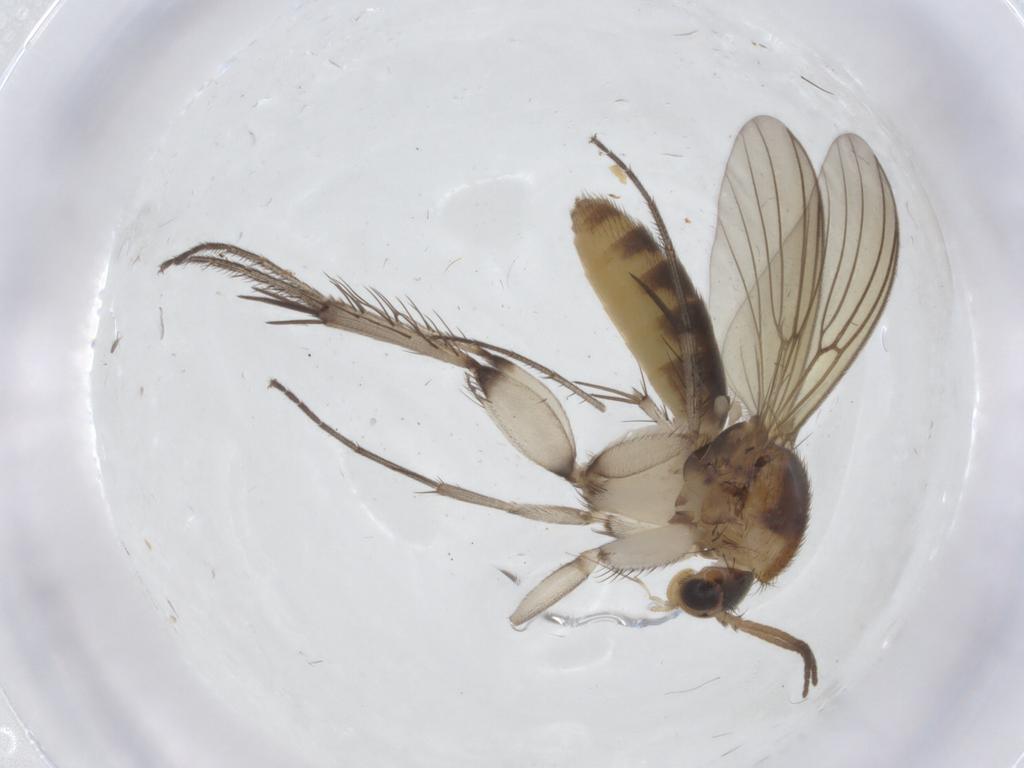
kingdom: Animalia
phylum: Arthropoda
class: Insecta
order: Diptera
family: Mycetophilidae
